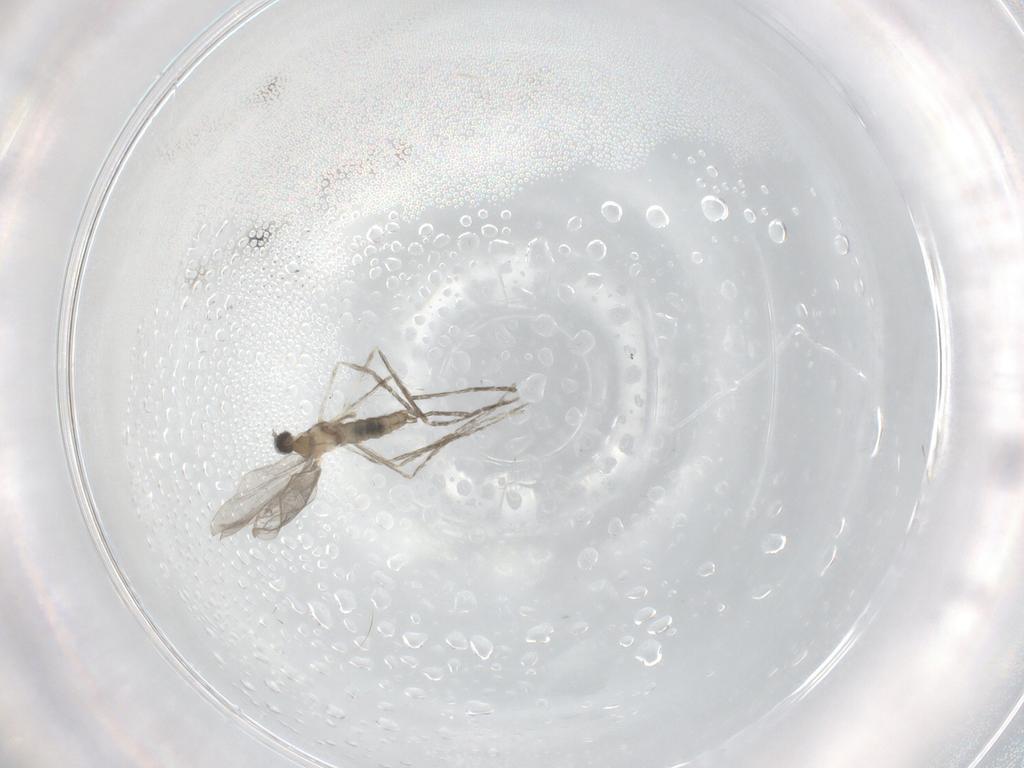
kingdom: Animalia
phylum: Arthropoda
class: Insecta
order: Diptera
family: Cecidomyiidae
